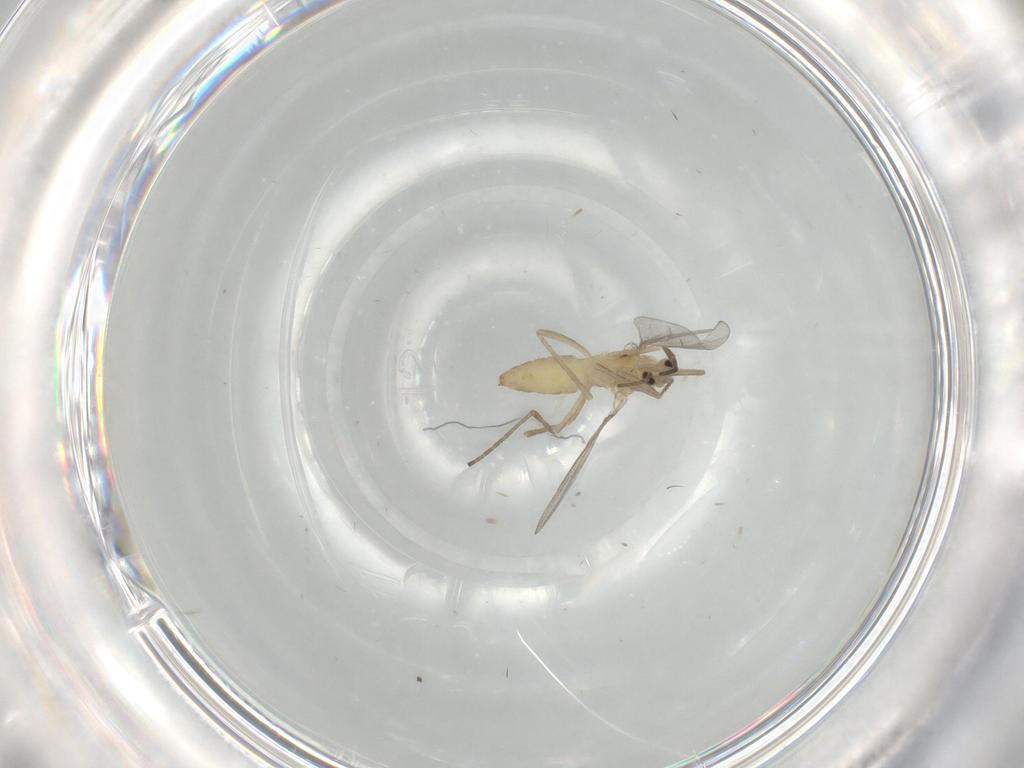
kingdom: Animalia
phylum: Arthropoda
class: Insecta
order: Diptera
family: Cecidomyiidae
